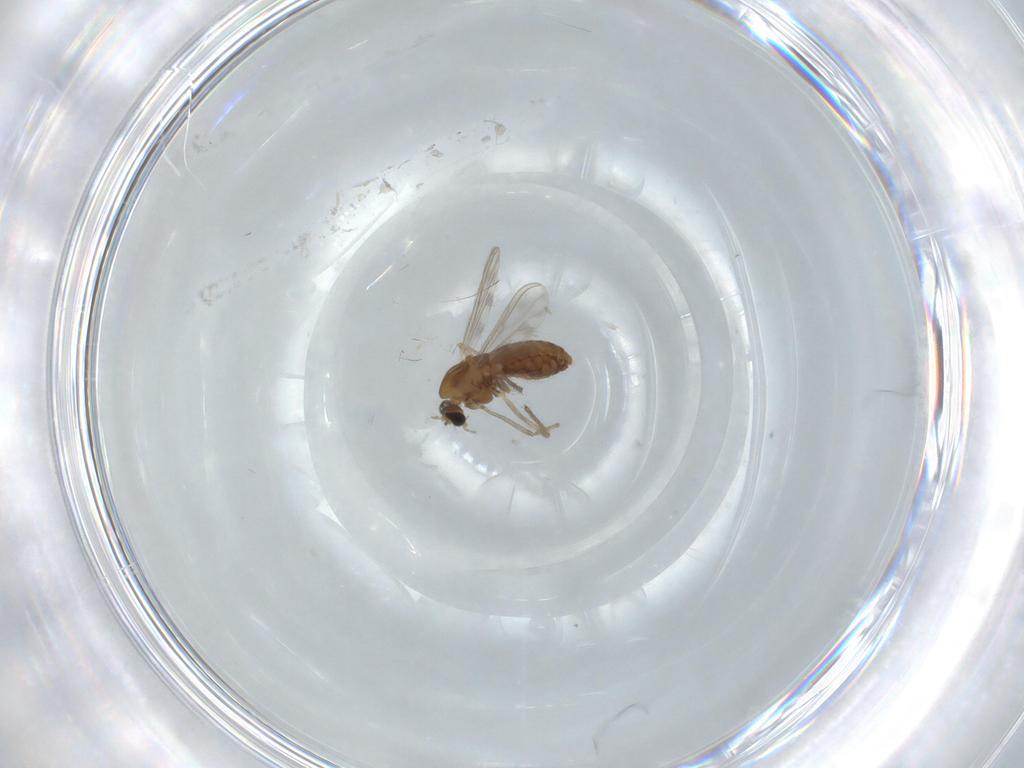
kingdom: Animalia
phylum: Arthropoda
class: Insecta
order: Diptera
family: Chironomidae
